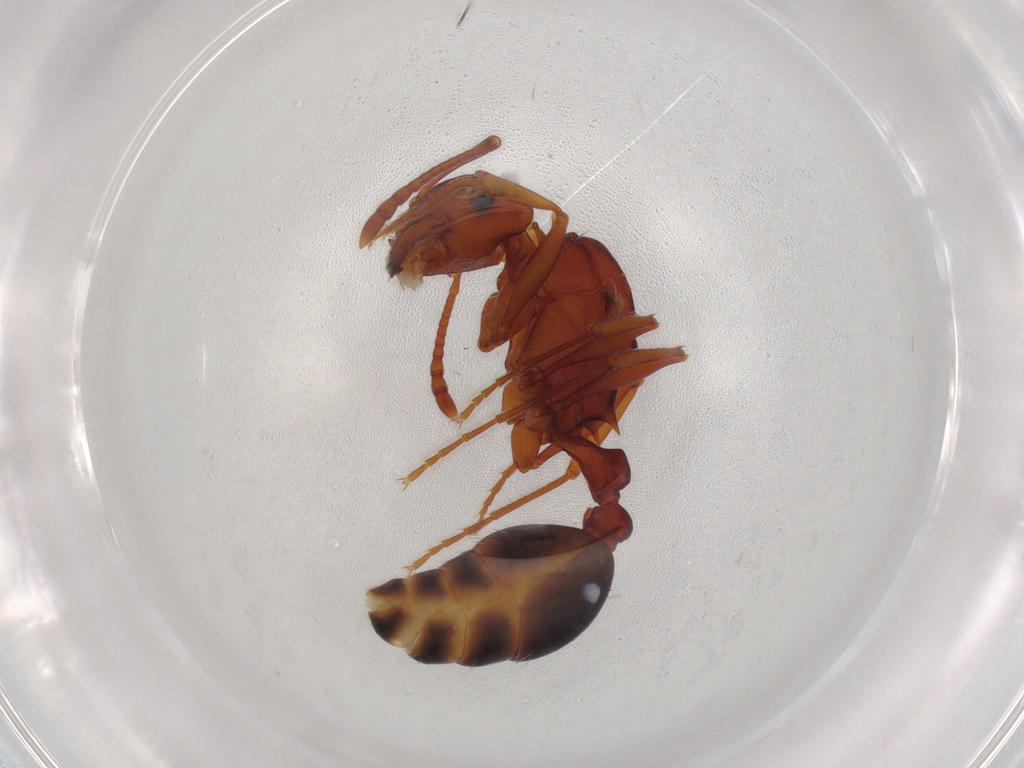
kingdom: Animalia
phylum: Arthropoda
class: Insecta
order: Hymenoptera
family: Formicidae
